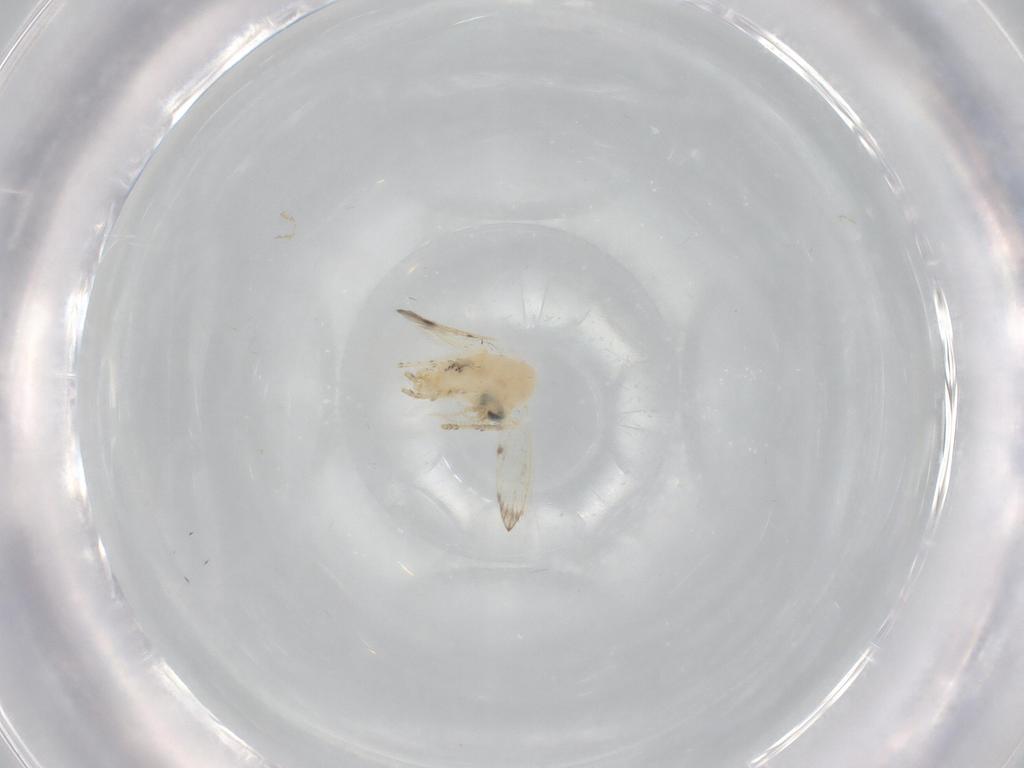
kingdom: Animalia
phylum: Arthropoda
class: Insecta
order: Diptera
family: Psychodidae
